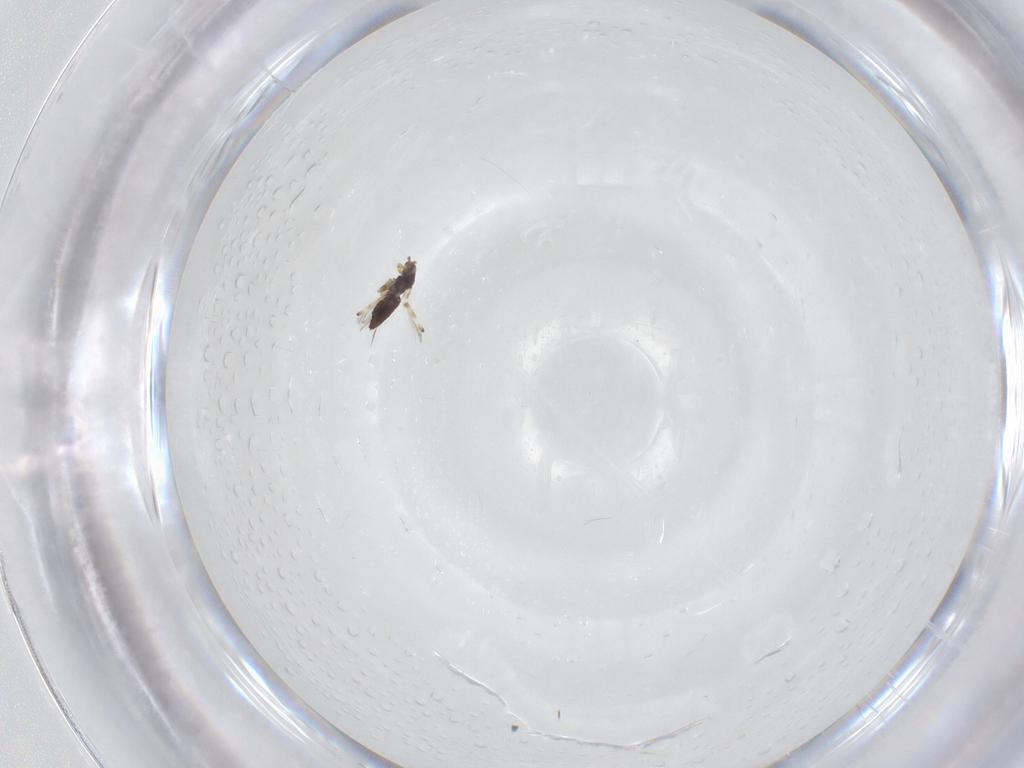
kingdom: Animalia
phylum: Arthropoda
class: Insecta
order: Thysanoptera
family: Thripidae
